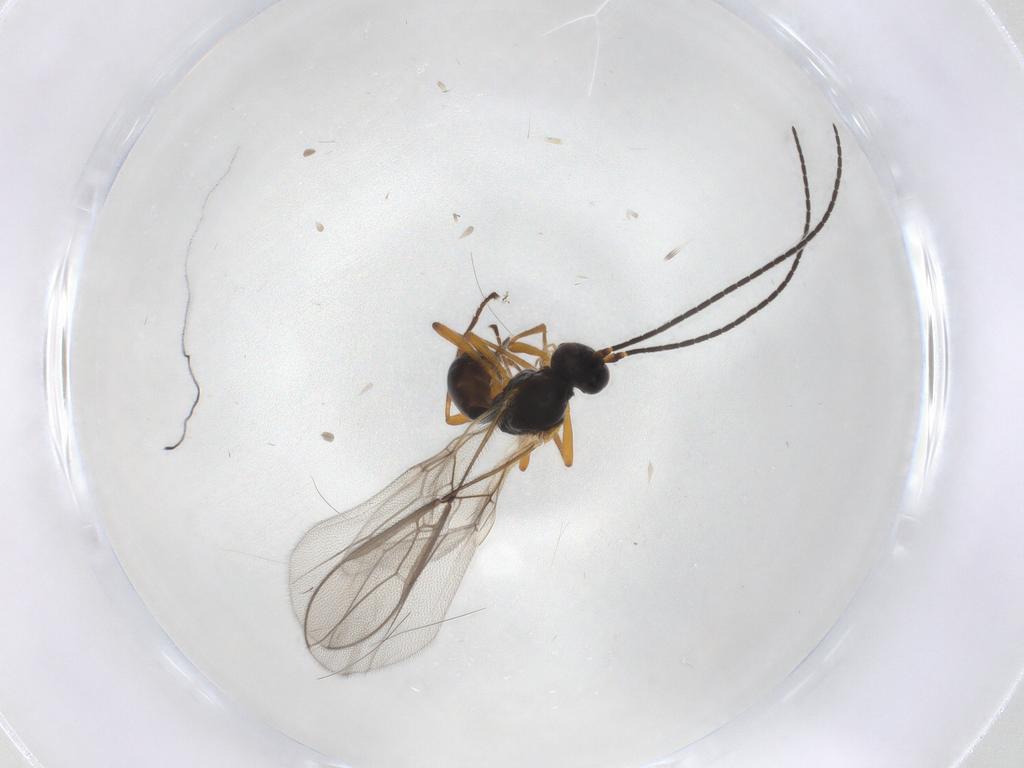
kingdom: Animalia
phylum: Arthropoda
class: Insecta
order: Hymenoptera
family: Braconidae
